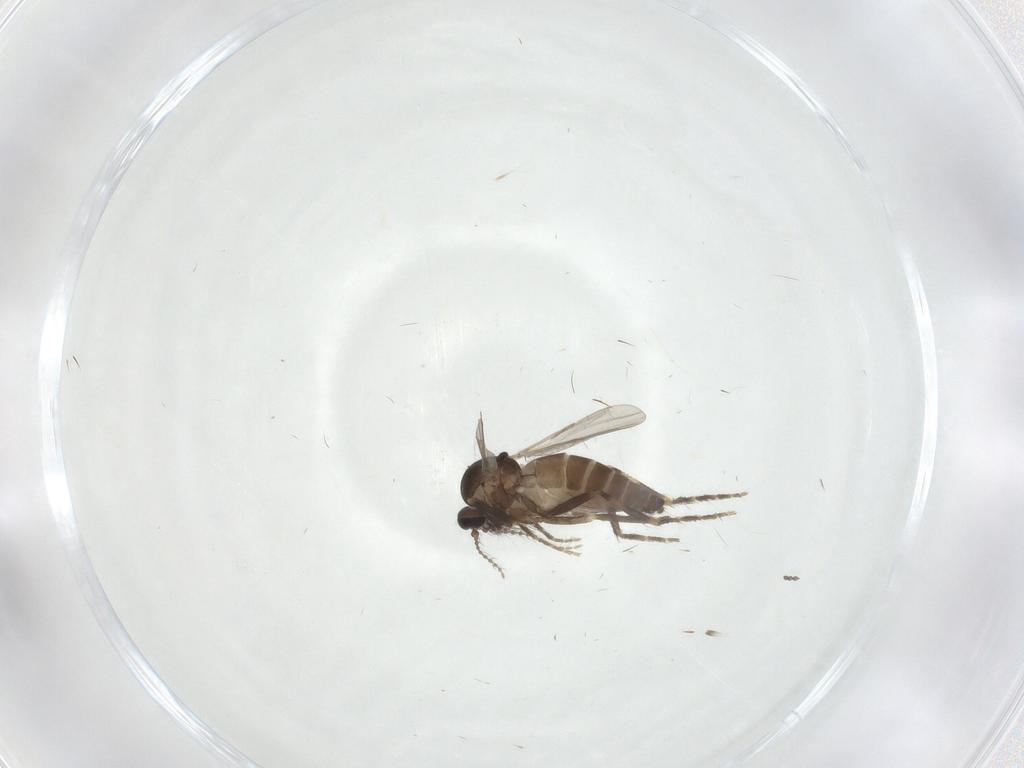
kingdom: Animalia
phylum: Arthropoda
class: Insecta
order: Diptera
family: Ceratopogonidae
